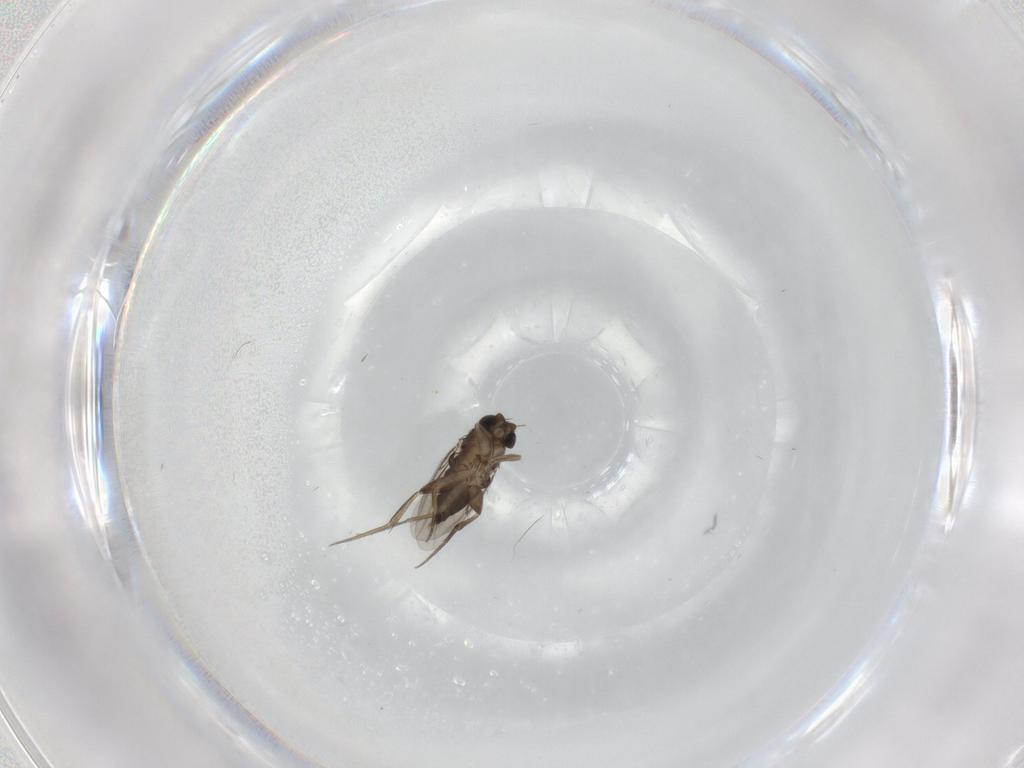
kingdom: Animalia
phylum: Arthropoda
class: Insecta
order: Diptera
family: Phoridae
